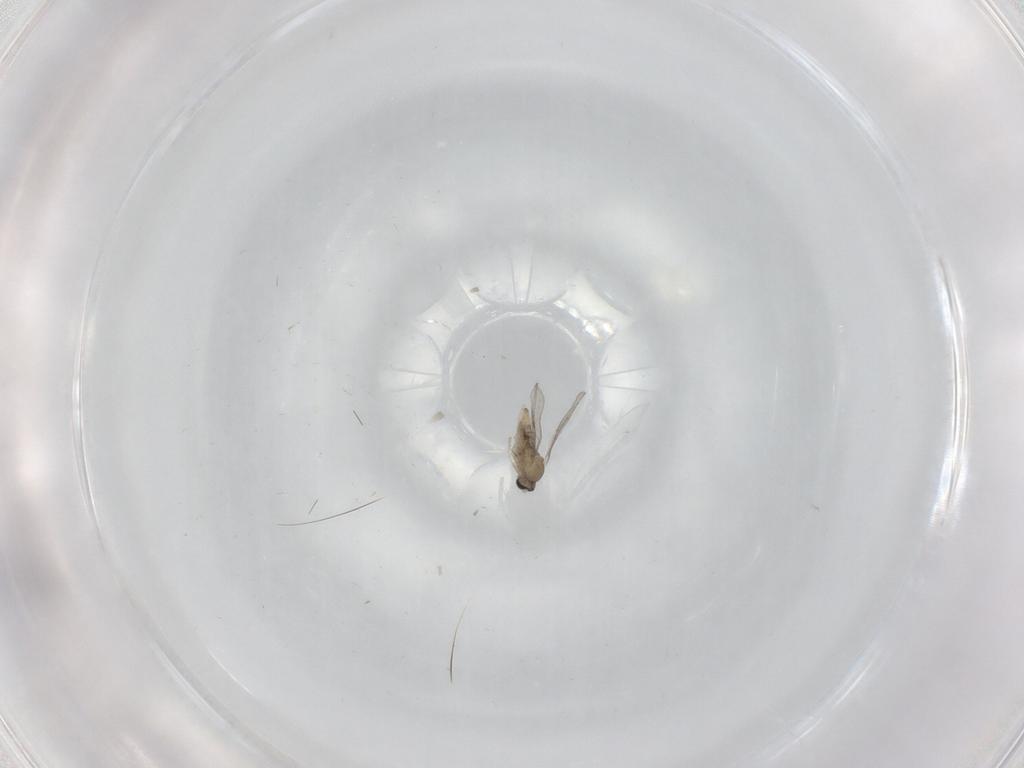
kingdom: Animalia
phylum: Arthropoda
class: Insecta
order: Diptera
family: Cecidomyiidae
